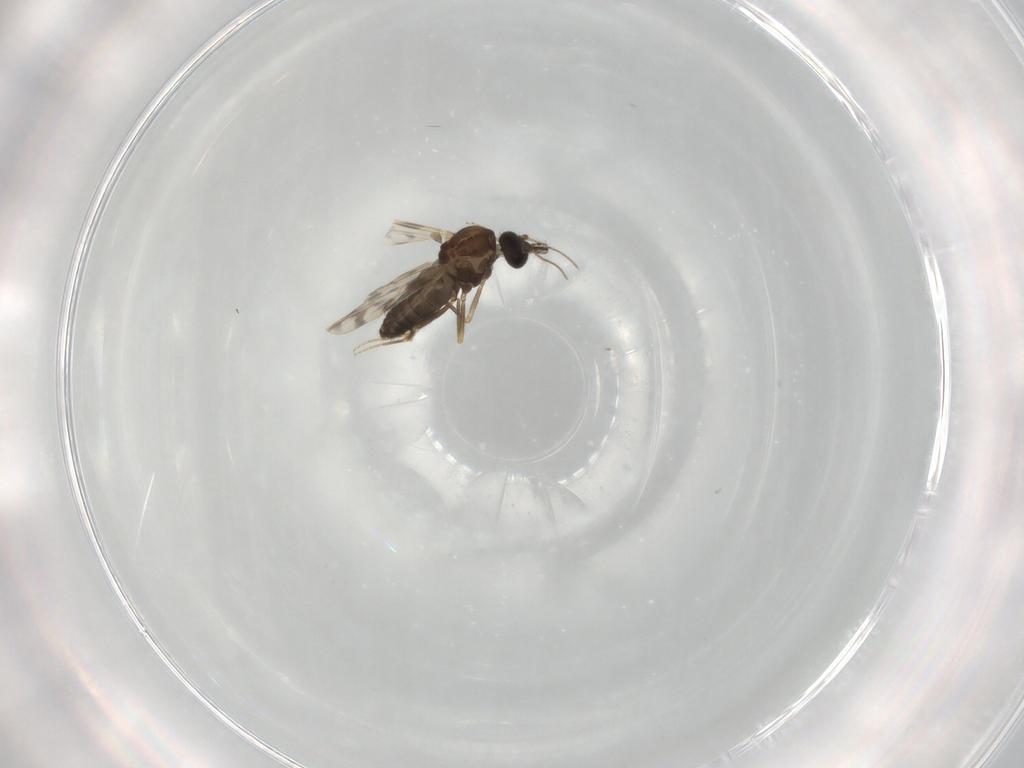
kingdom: Animalia
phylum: Arthropoda
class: Insecta
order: Diptera
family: Ceratopogonidae
